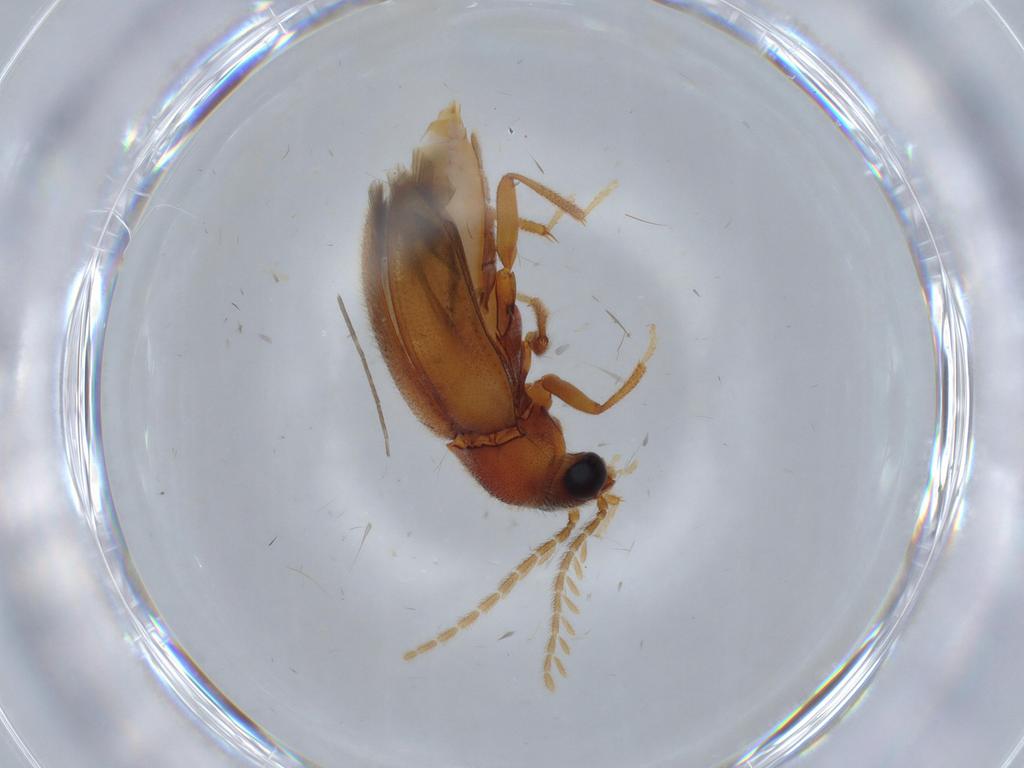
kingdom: Animalia
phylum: Arthropoda
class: Insecta
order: Coleoptera
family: Ptilodactylidae
